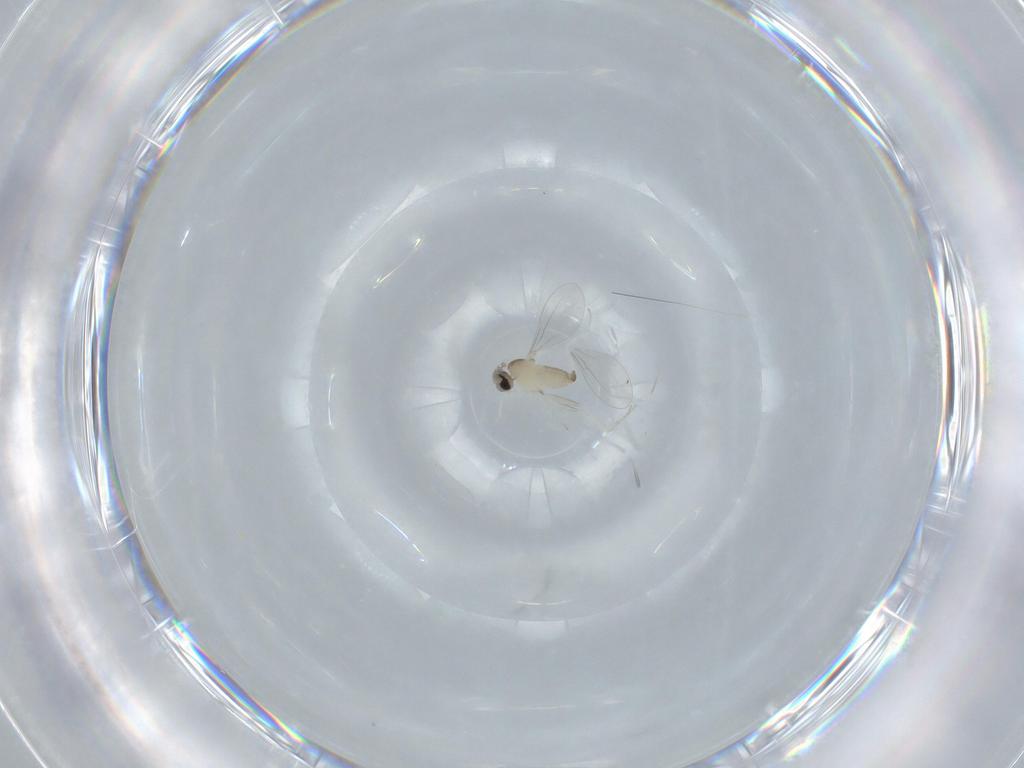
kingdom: Animalia
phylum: Arthropoda
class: Insecta
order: Diptera
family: Cecidomyiidae
